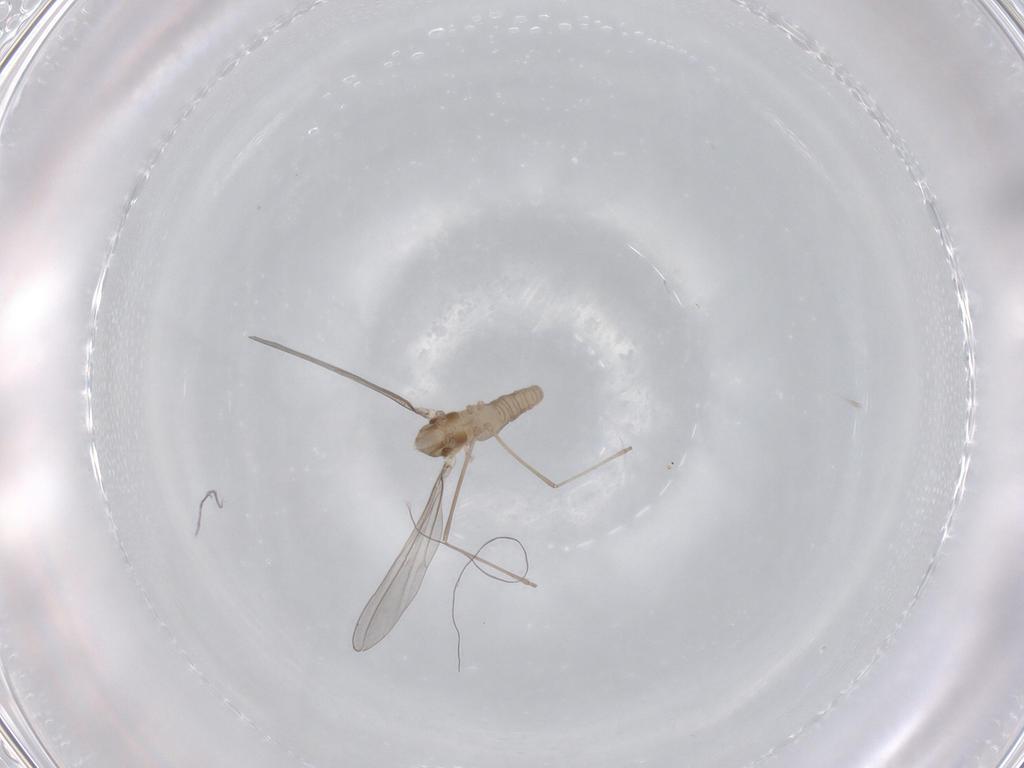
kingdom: Animalia
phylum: Arthropoda
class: Insecta
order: Diptera
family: Cecidomyiidae
